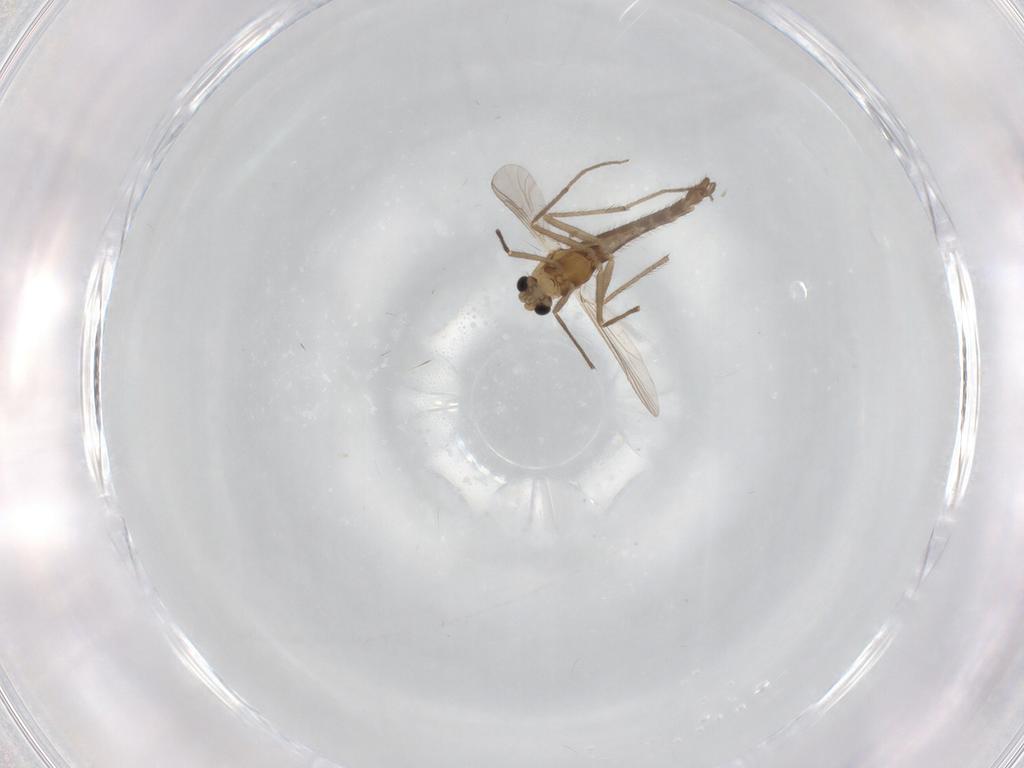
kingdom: Animalia
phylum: Arthropoda
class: Insecta
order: Diptera
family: Chironomidae
